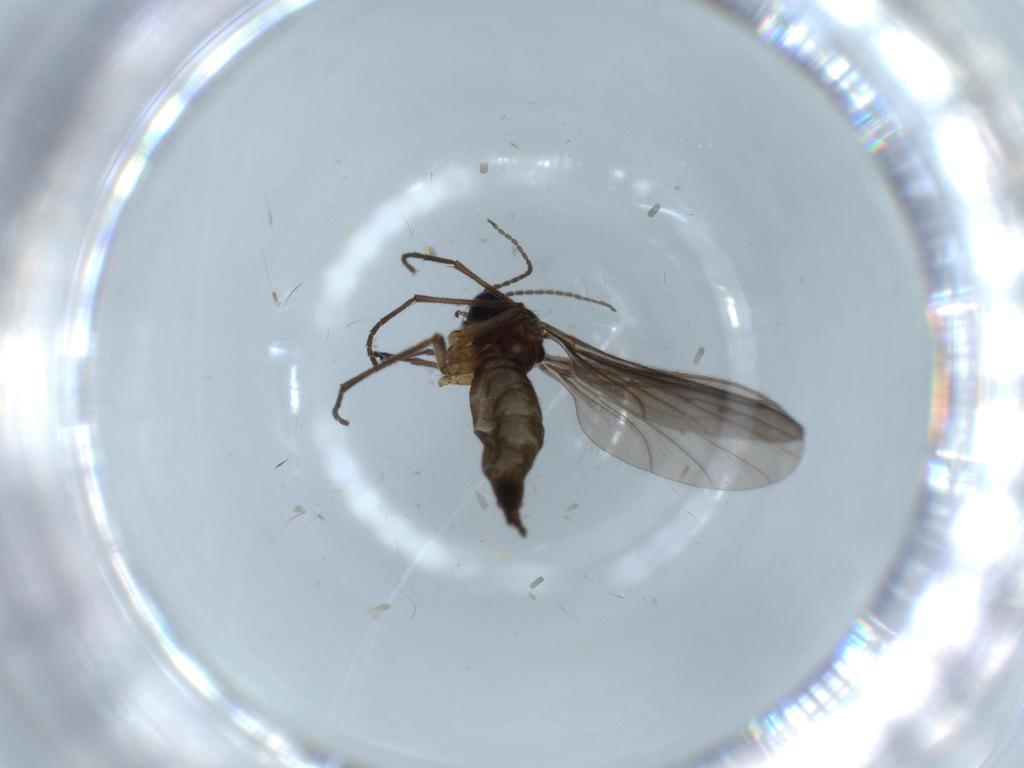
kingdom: Animalia
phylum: Arthropoda
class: Insecta
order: Diptera
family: Sciaridae
